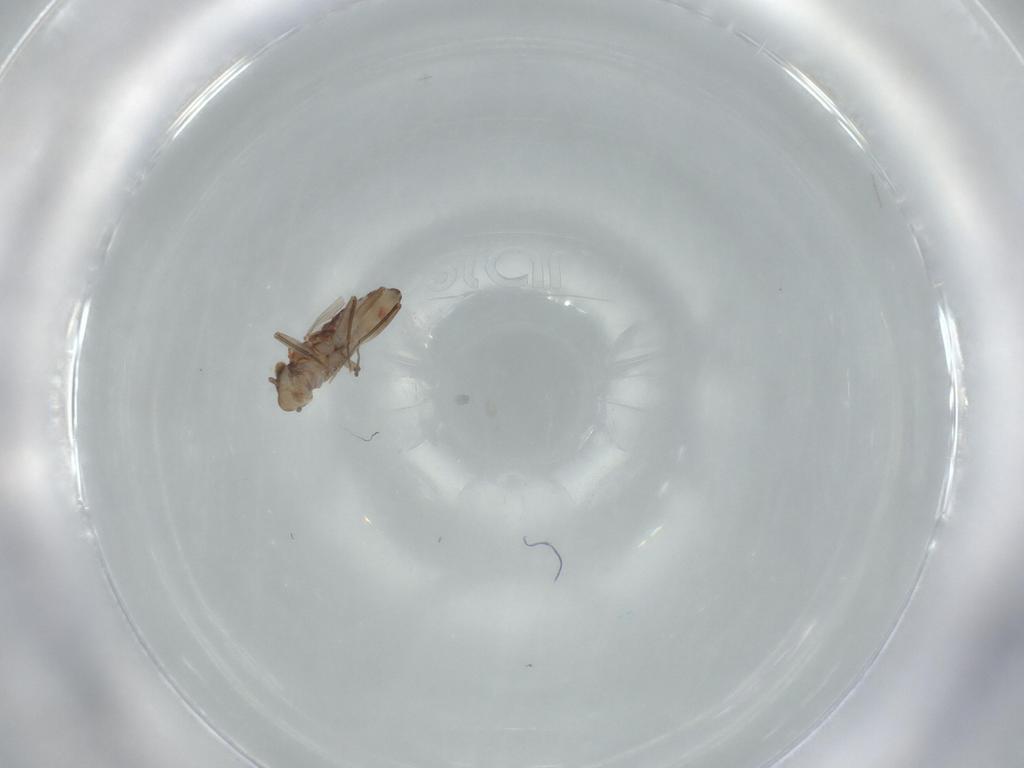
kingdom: Animalia
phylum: Arthropoda
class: Insecta
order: Psocodea
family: Lepidopsocidae
